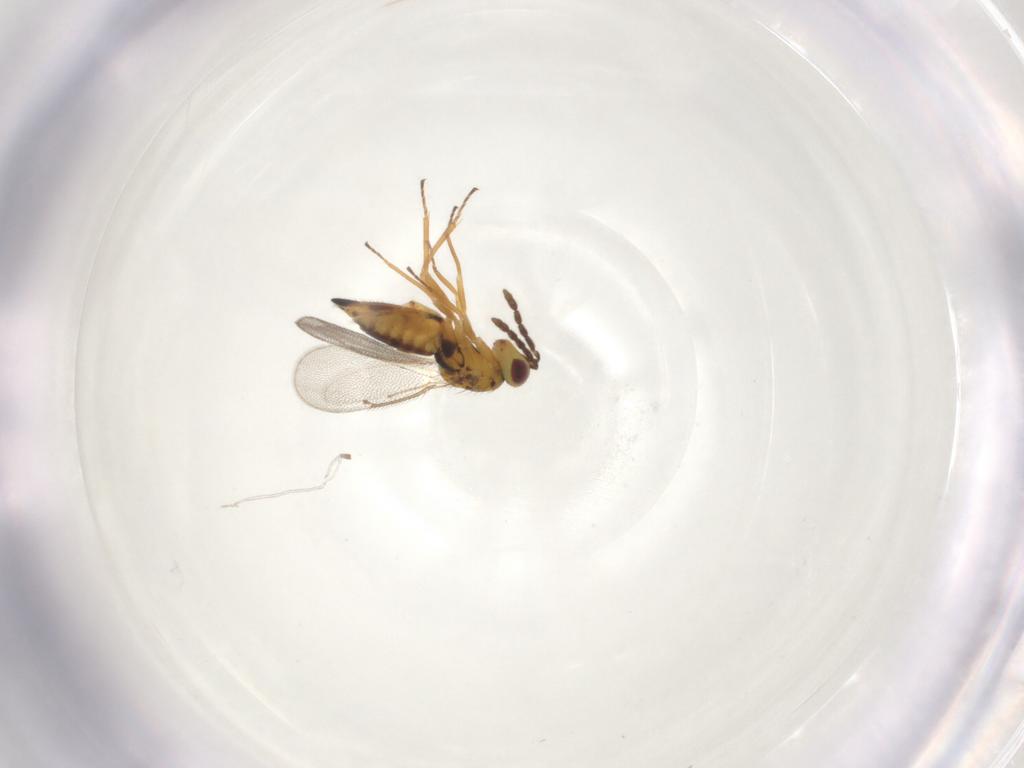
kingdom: Animalia
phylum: Arthropoda
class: Insecta
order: Hymenoptera
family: Eulophidae
